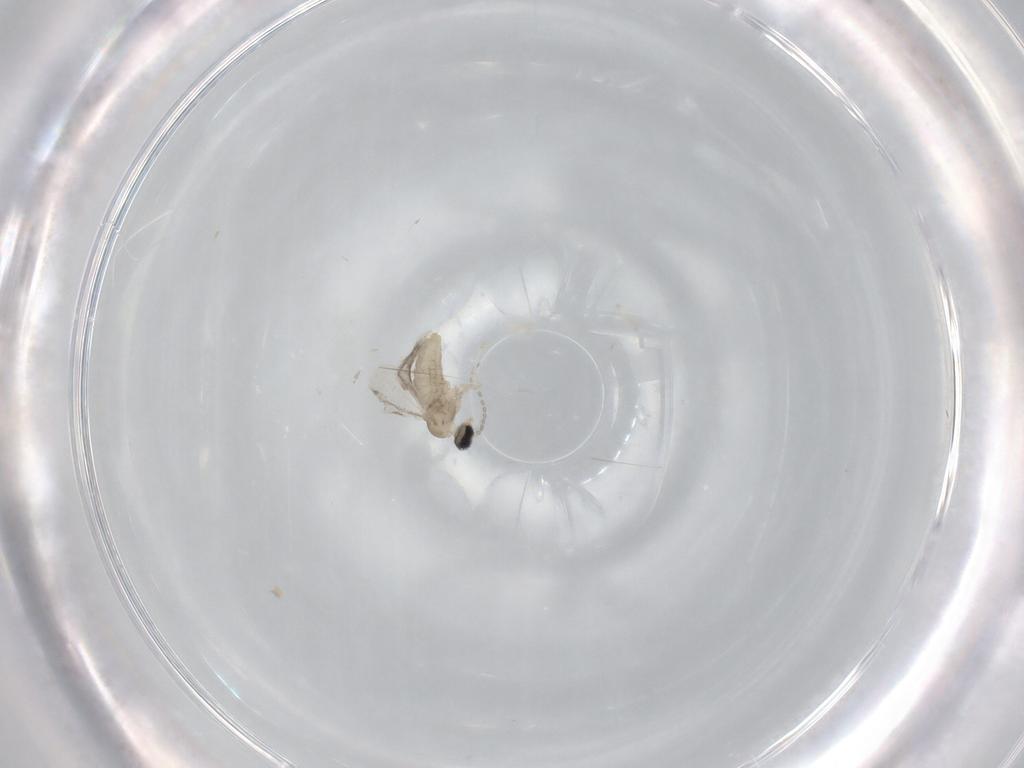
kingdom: Animalia
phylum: Arthropoda
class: Insecta
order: Diptera
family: Cecidomyiidae
